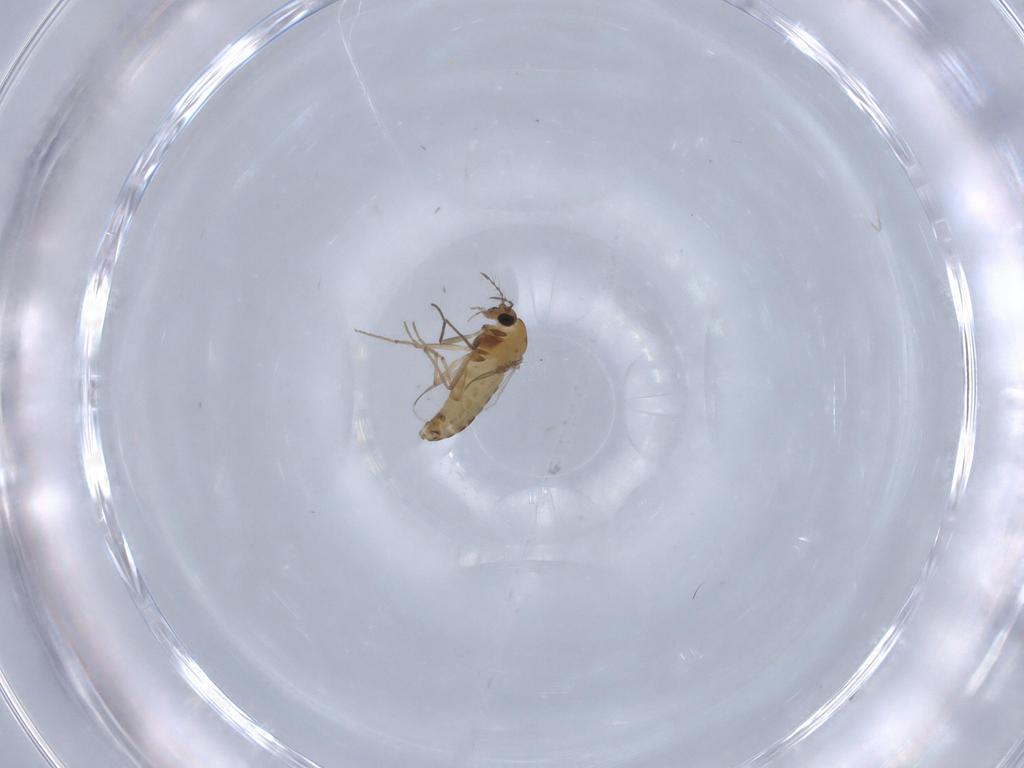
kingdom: Animalia
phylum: Arthropoda
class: Insecta
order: Diptera
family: Chironomidae
